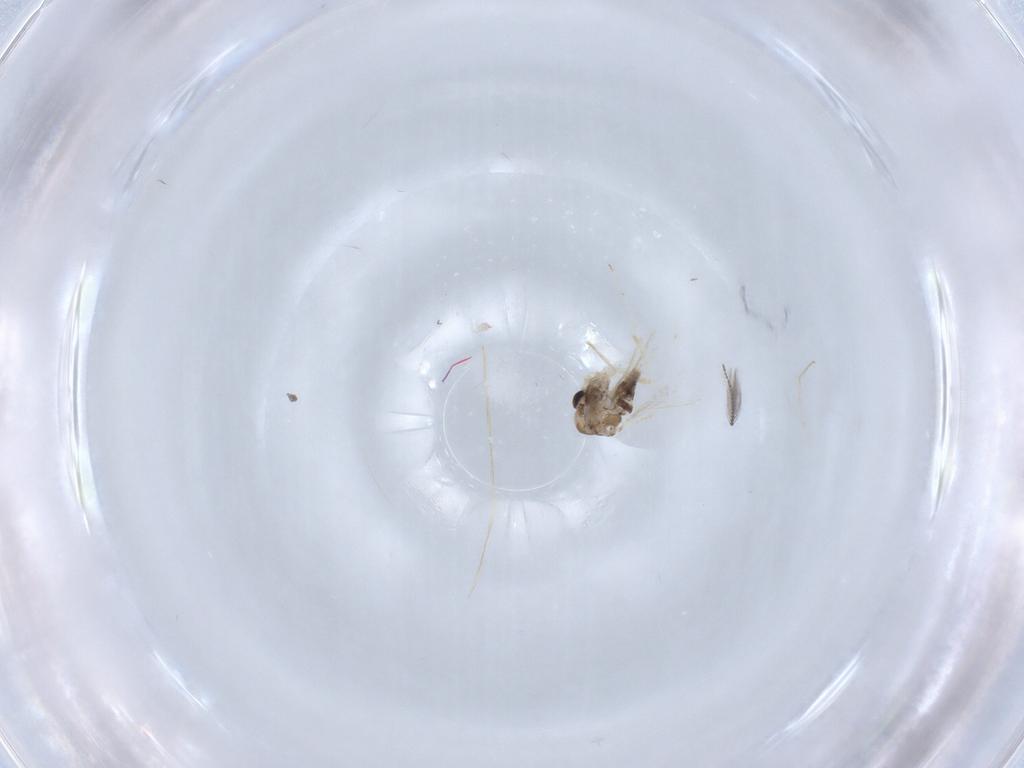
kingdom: Animalia
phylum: Arthropoda
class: Insecta
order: Diptera
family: Chironomidae
